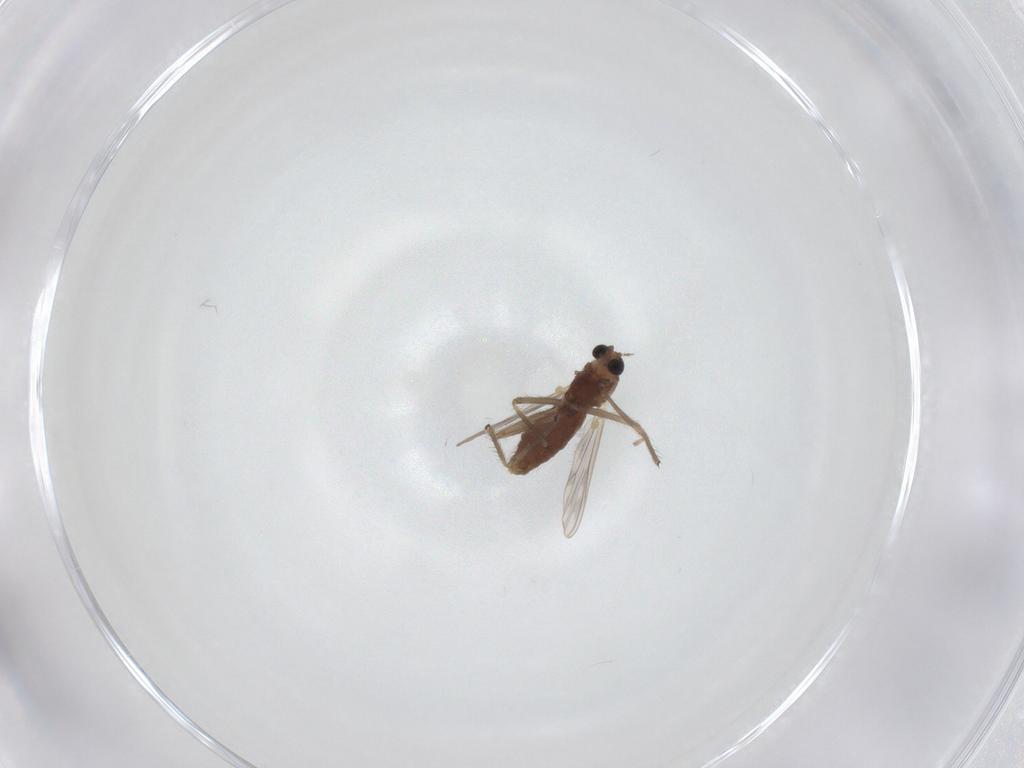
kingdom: Animalia
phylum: Arthropoda
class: Insecta
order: Diptera
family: Chironomidae
